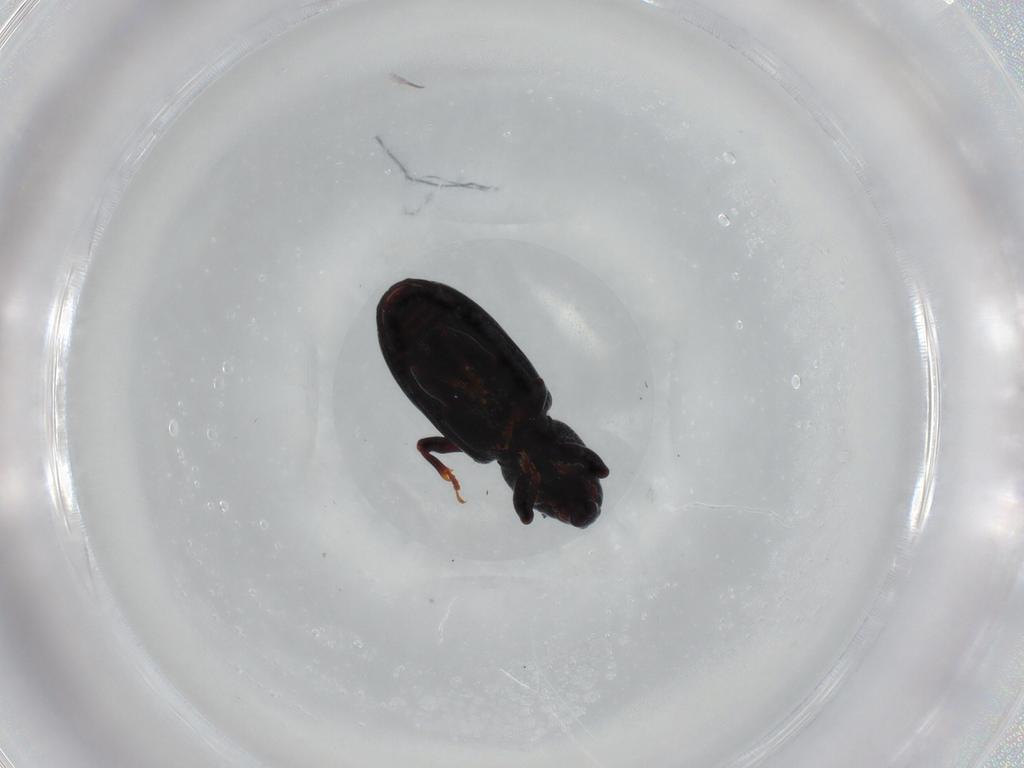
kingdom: Animalia
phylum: Arthropoda
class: Insecta
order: Coleoptera
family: Curculionidae
